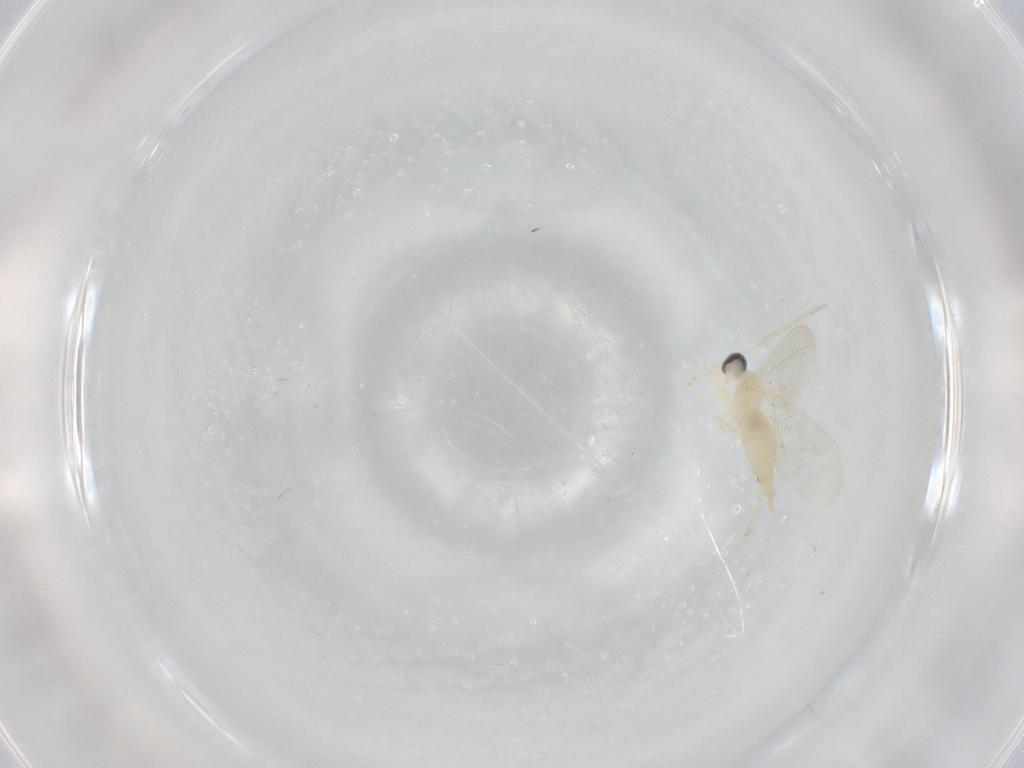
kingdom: Animalia
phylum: Arthropoda
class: Insecta
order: Diptera
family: Cecidomyiidae
